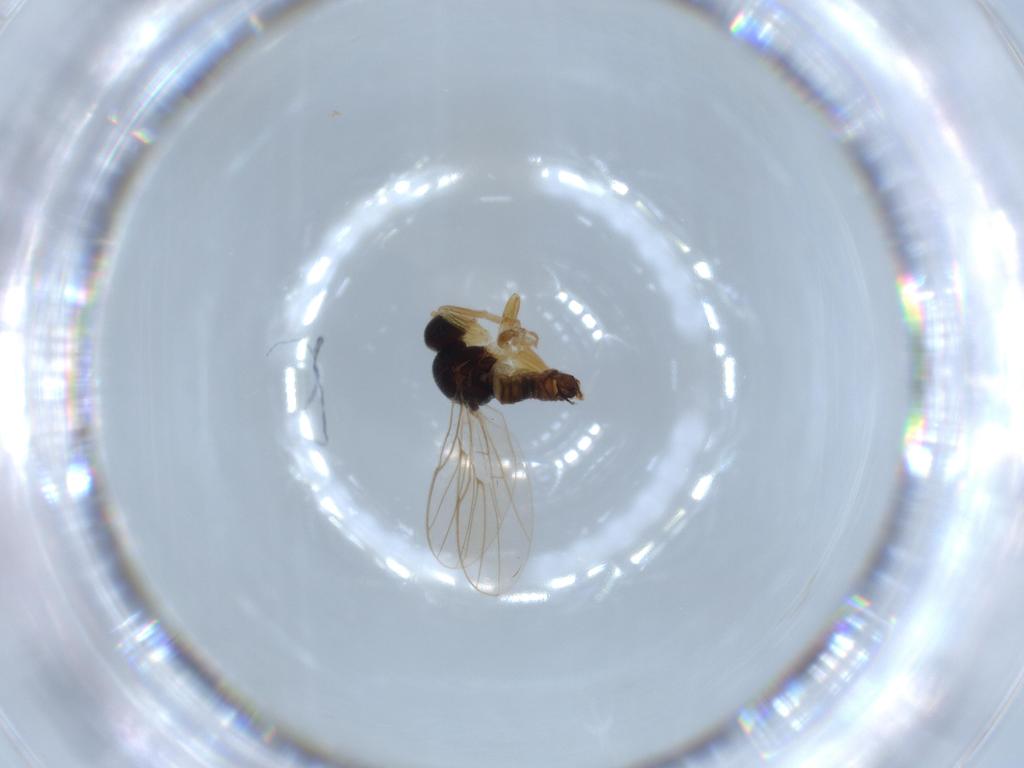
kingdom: Animalia
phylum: Arthropoda
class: Insecta
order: Diptera
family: Hybotidae
